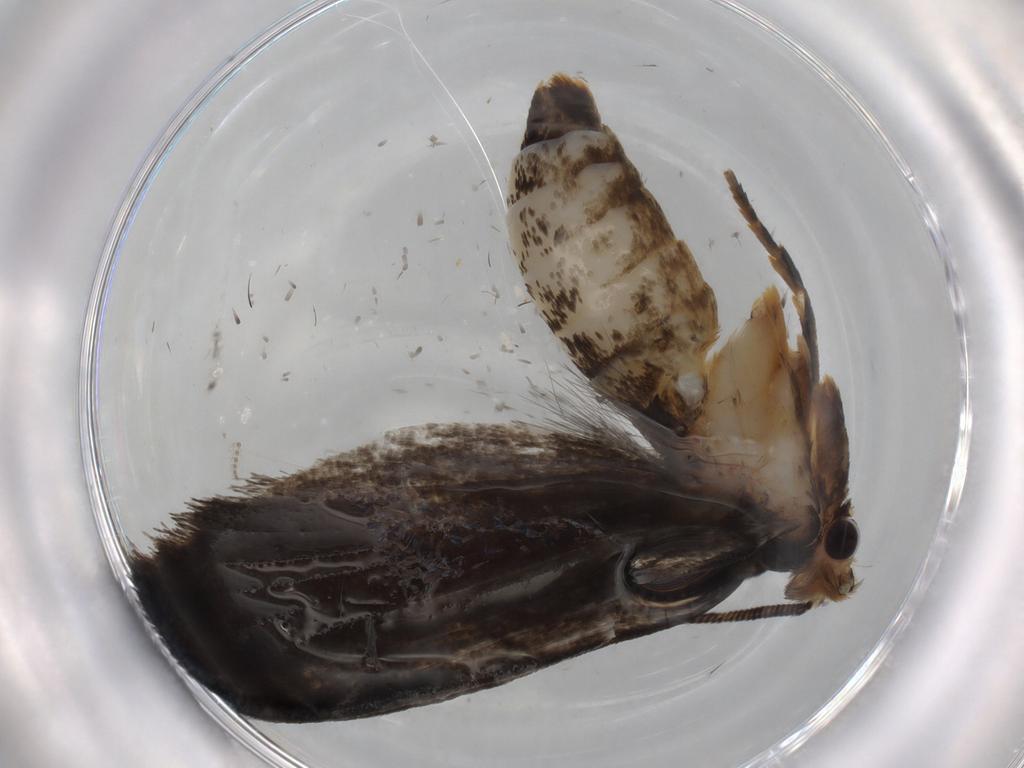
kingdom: Animalia
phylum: Arthropoda
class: Insecta
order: Lepidoptera
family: Tineidae
